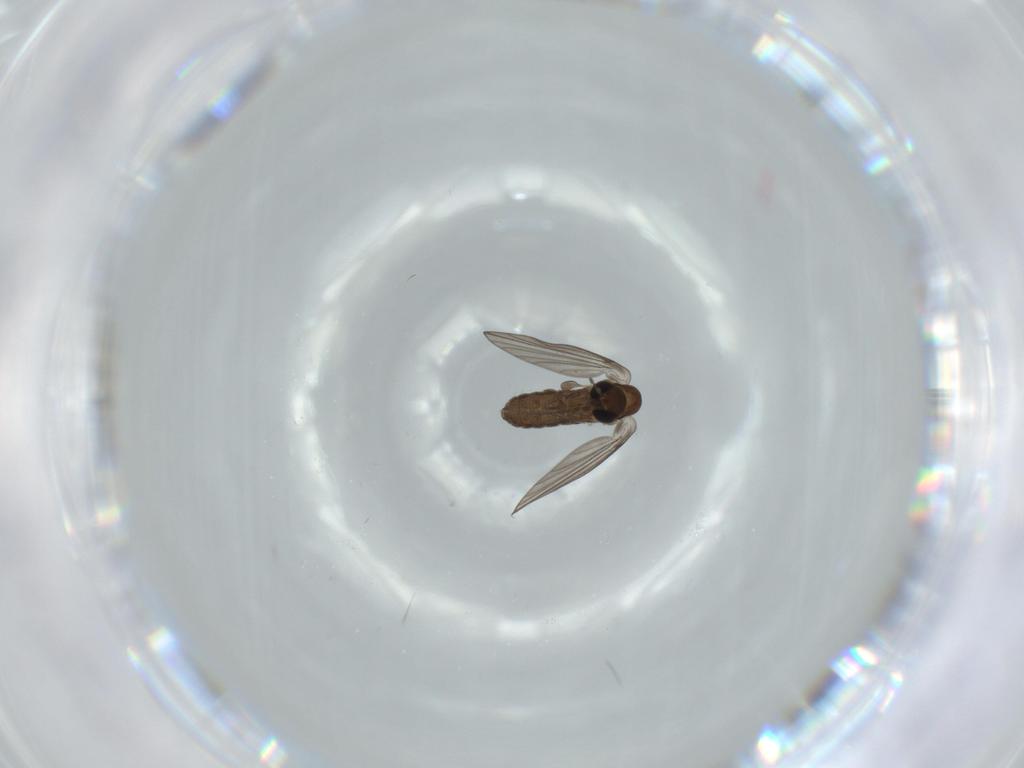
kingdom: Animalia
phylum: Arthropoda
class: Insecta
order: Diptera
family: Psychodidae
